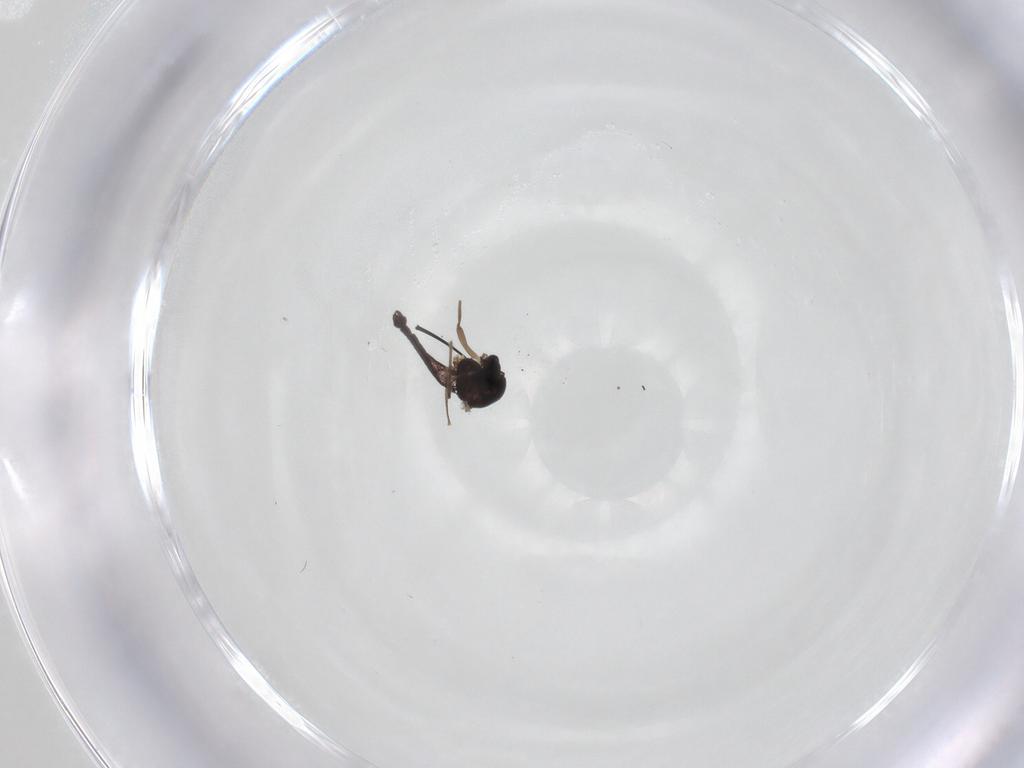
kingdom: Animalia
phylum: Arthropoda
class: Insecta
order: Diptera
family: Chironomidae
